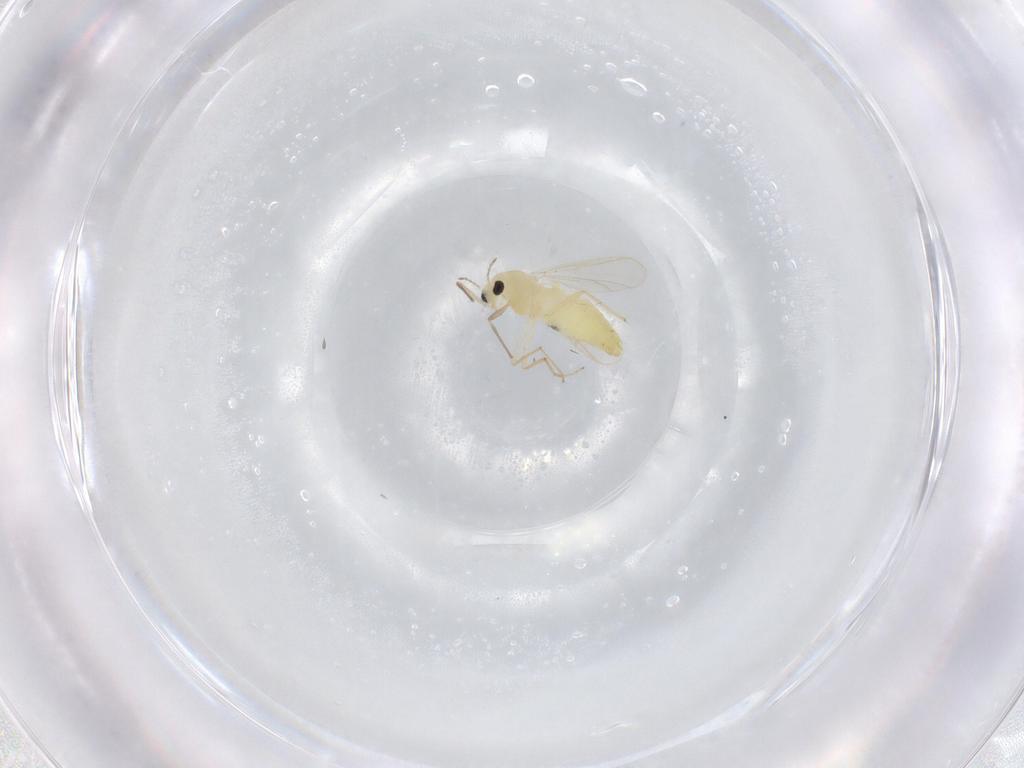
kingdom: Animalia
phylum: Arthropoda
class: Insecta
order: Diptera
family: Chironomidae
